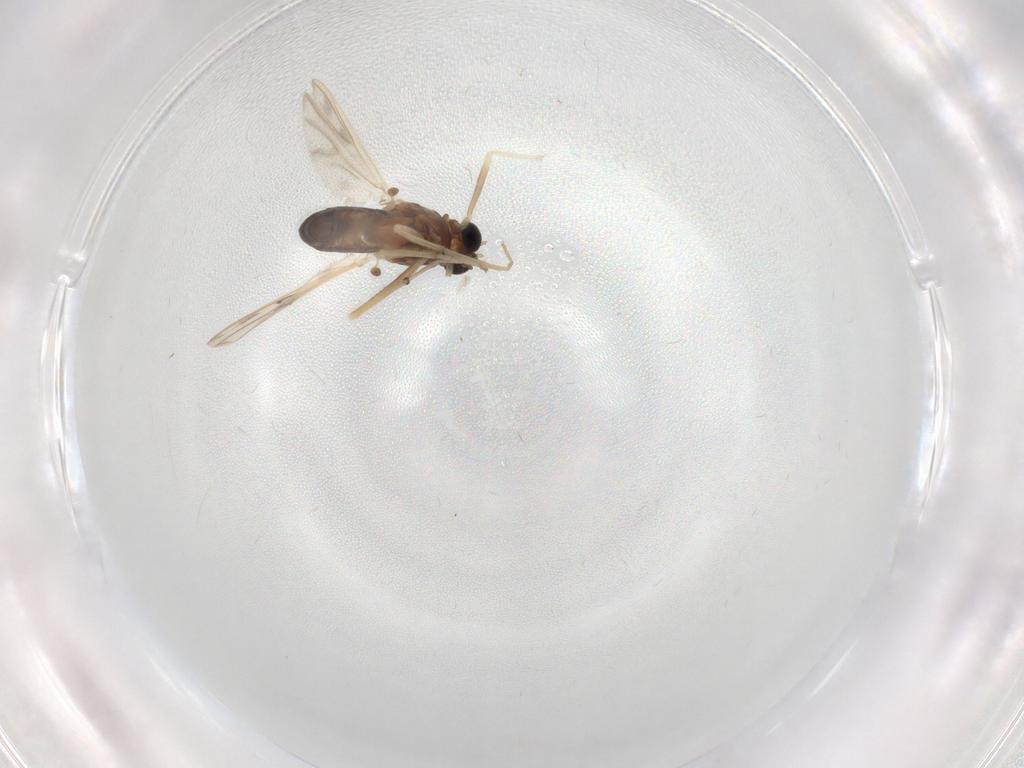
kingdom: Animalia
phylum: Arthropoda
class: Insecta
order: Diptera
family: Chironomidae
